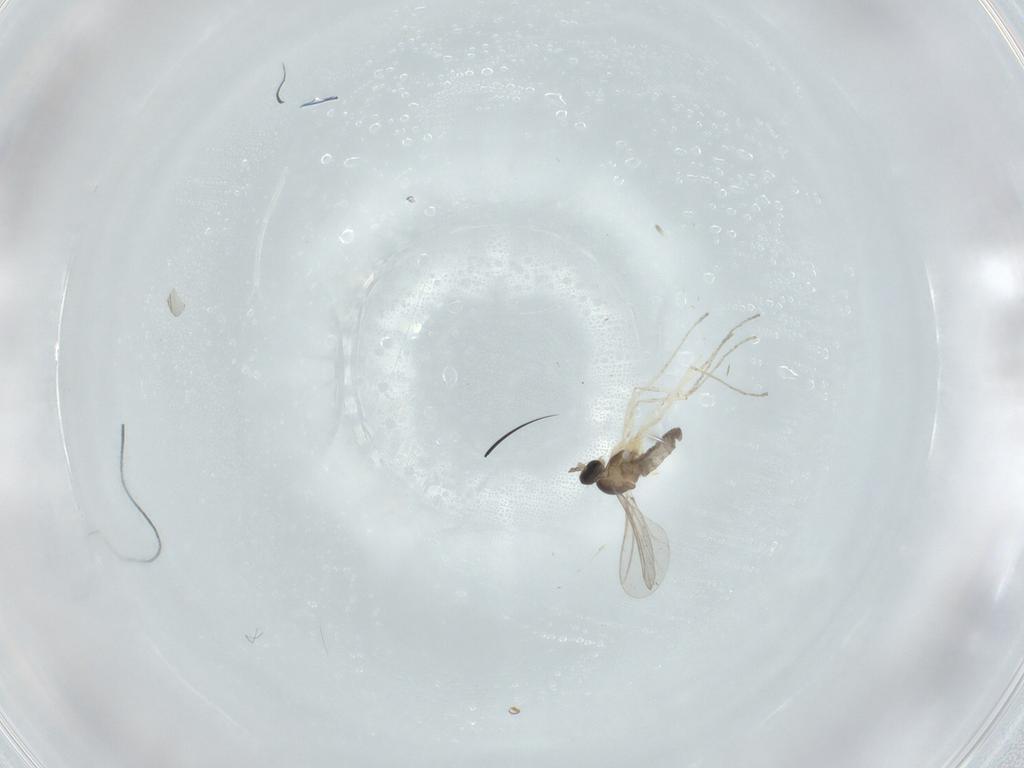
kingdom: Animalia
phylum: Arthropoda
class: Insecta
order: Diptera
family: Cecidomyiidae
